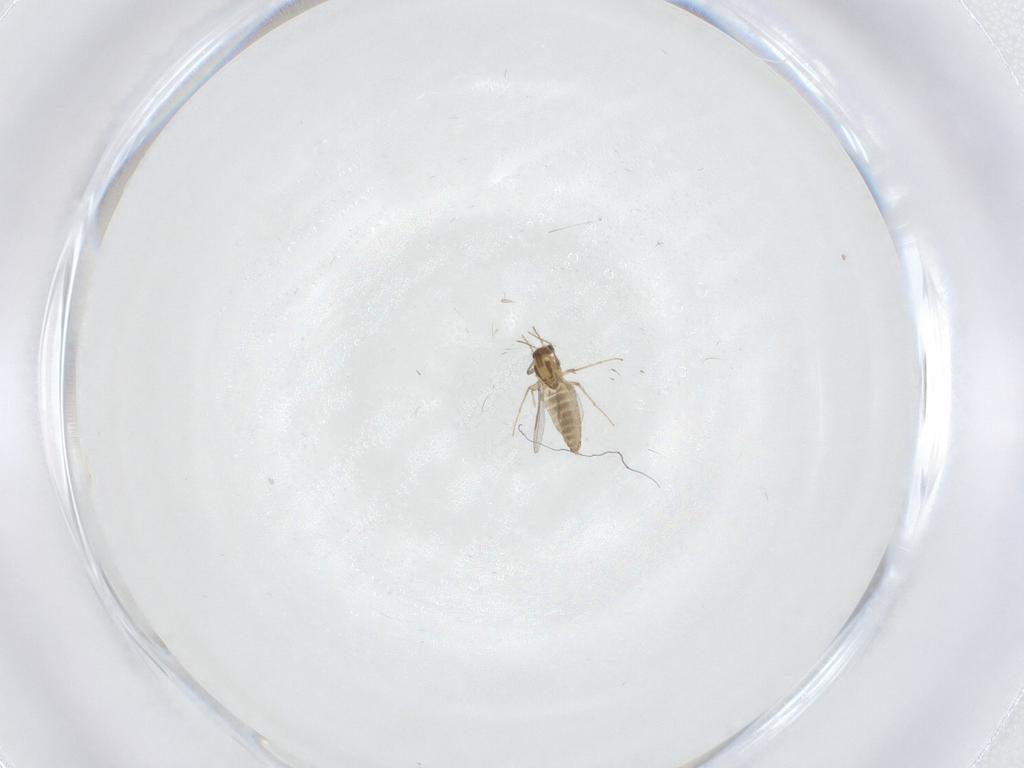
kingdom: Animalia
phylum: Arthropoda
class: Insecta
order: Diptera
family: Chironomidae
